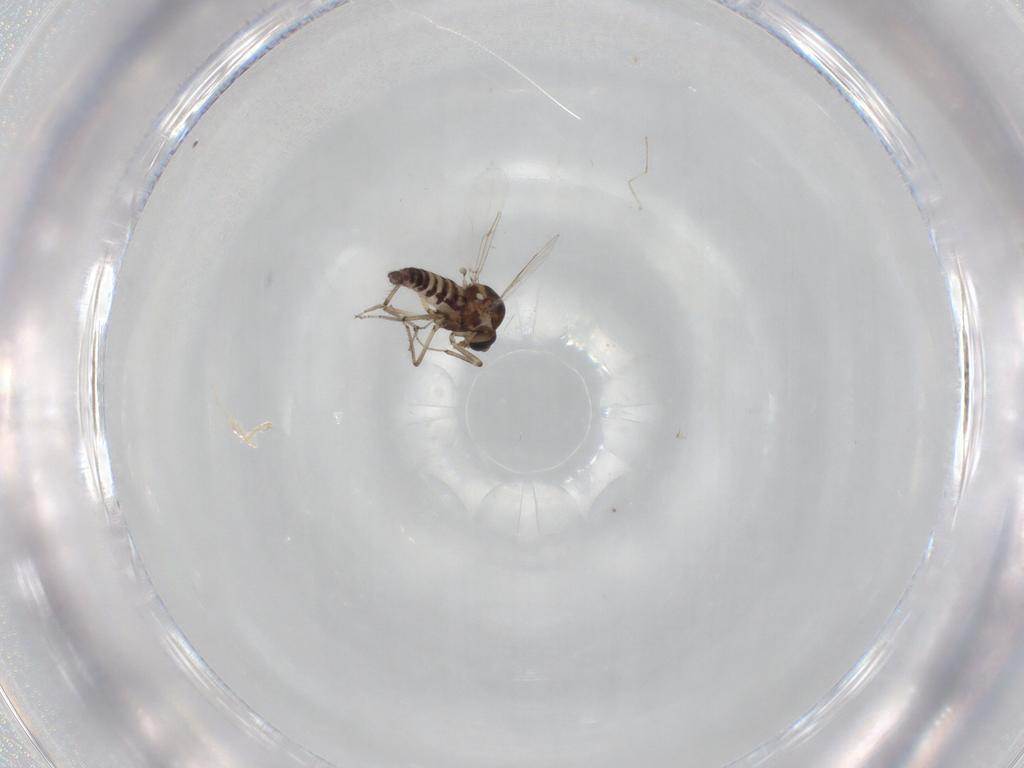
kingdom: Animalia
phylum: Arthropoda
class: Insecta
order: Diptera
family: Ceratopogonidae
